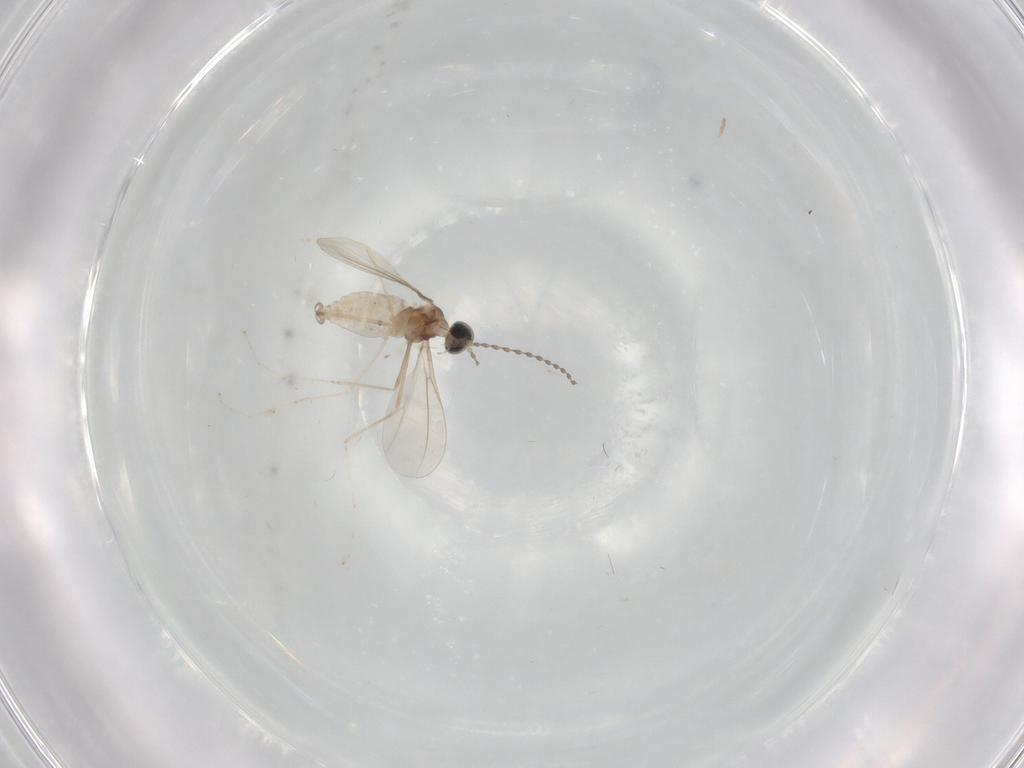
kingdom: Animalia
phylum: Arthropoda
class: Insecta
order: Diptera
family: Cecidomyiidae
